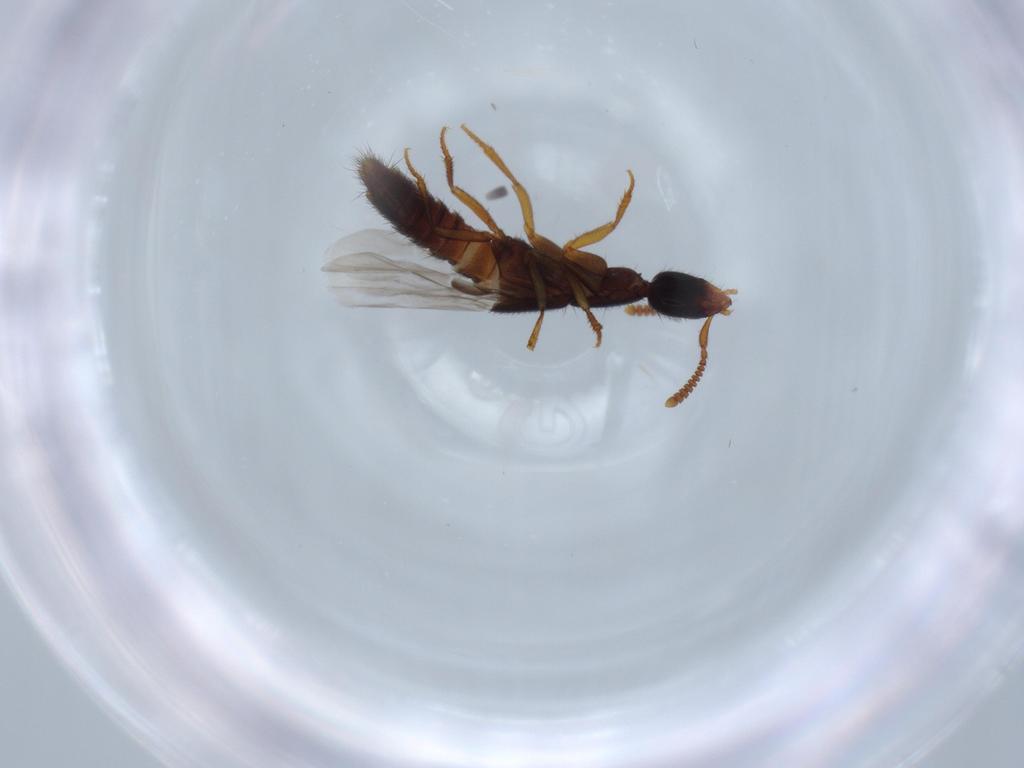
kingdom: Animalia
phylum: Arthropoda
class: Insecta
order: Coleoptera
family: Staphylinidae
